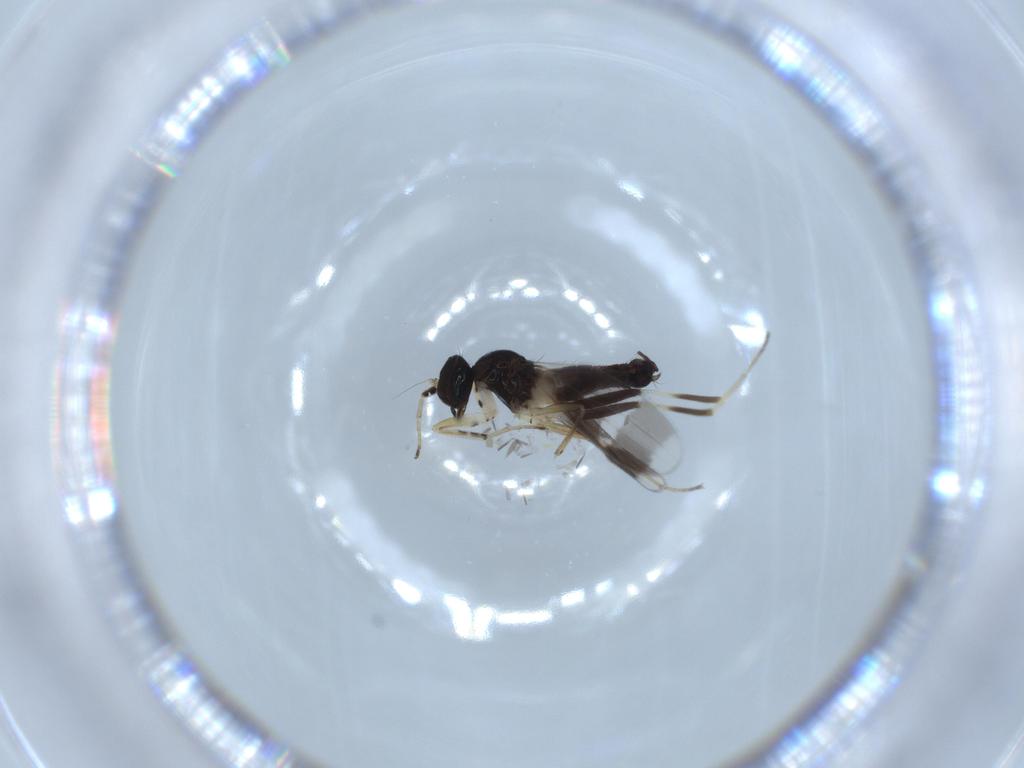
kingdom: Animalia
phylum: Arthropoda
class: Insecta
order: Diptera
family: Hybotidae
